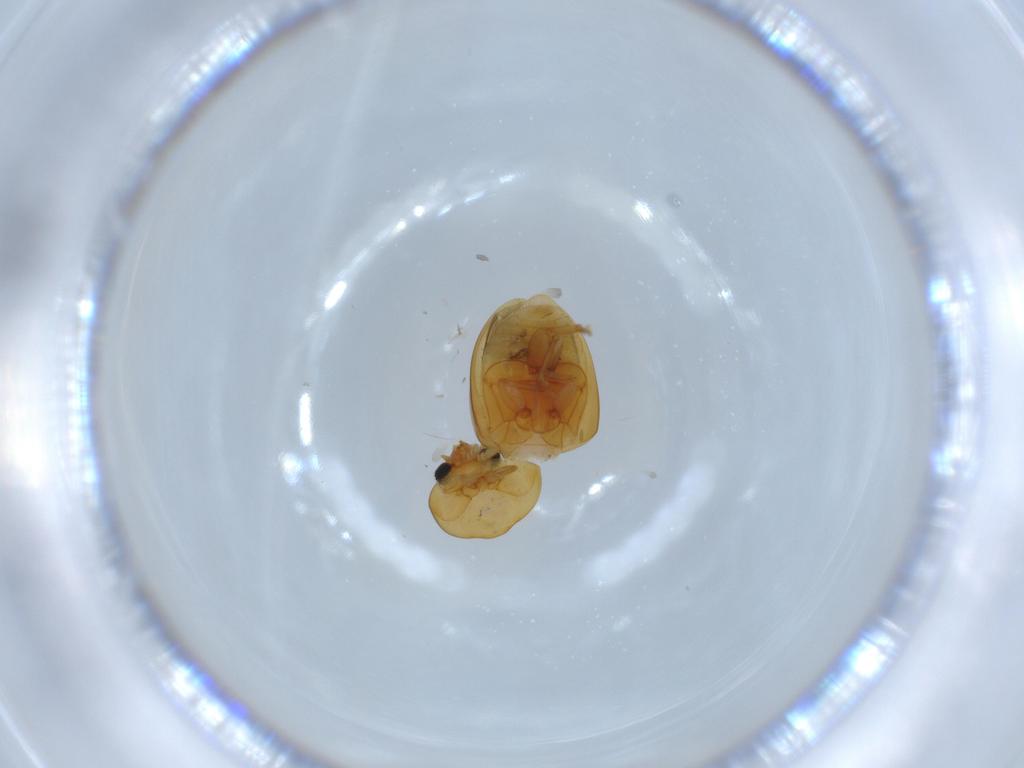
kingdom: Animalia
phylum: Arthropoda
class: Insecta
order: Coleoptera
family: Chrysomelidae
